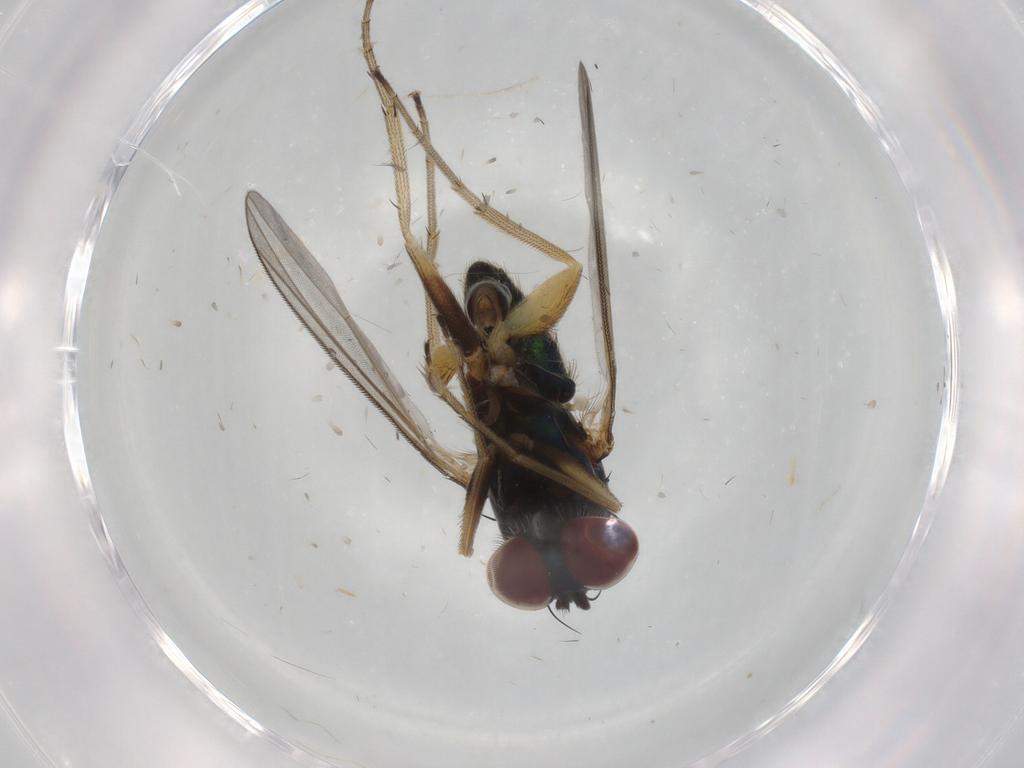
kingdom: Animalia
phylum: Arthropoda
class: Insecta
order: Diptera
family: Dolichopodidae
